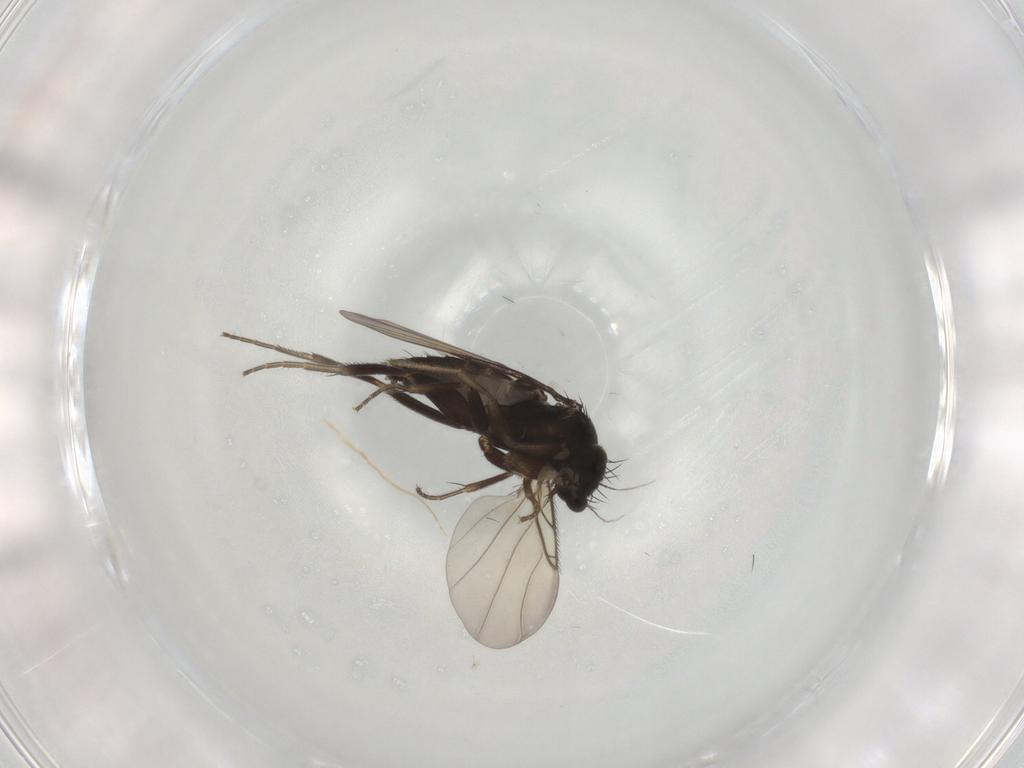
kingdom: Animalia
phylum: Arthropoda
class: Insecta
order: Diptera
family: Phoridae
